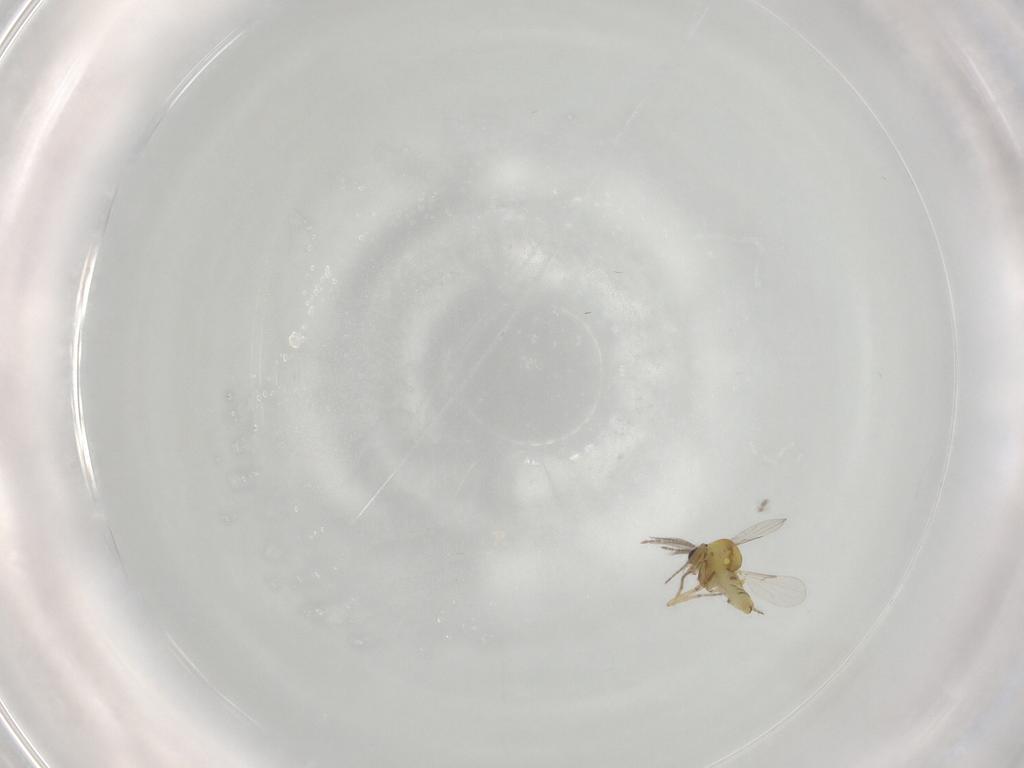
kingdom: Animalia
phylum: Arthropoda
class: Insecta
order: Diptera
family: Ceratopogonidae
